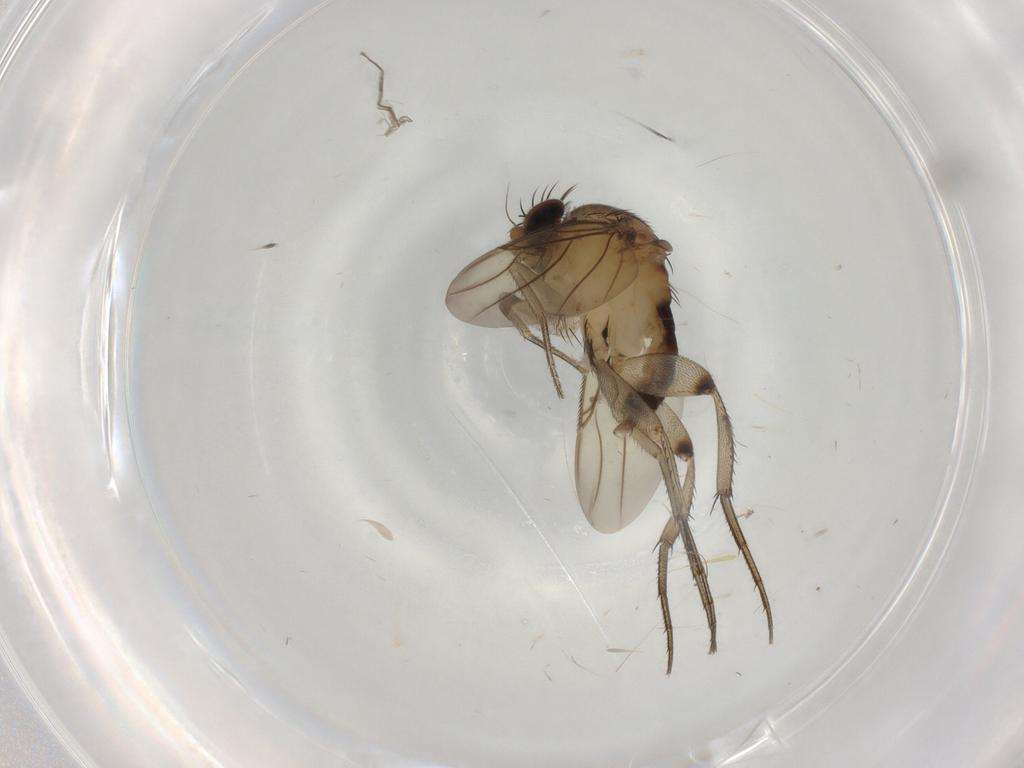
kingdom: Animalia
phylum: Arthropoda
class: Insecta
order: Diptera
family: Phoridae
